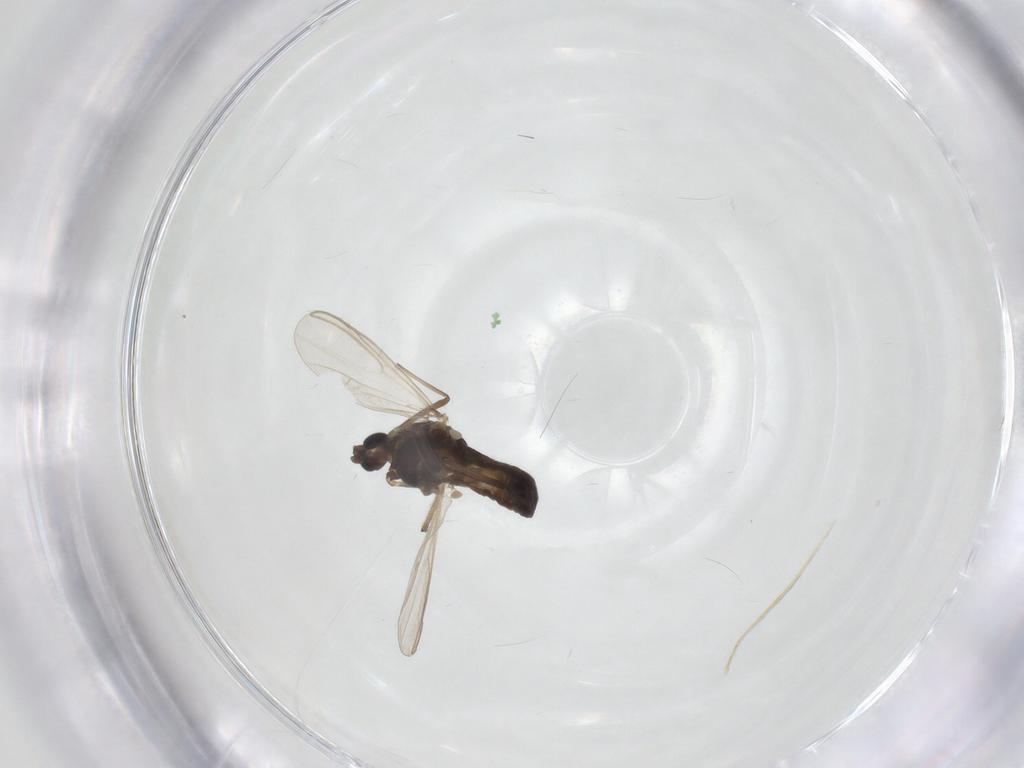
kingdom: Animalia
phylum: Arthropoda
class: Insecta
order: Diptera
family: Chironomidae
